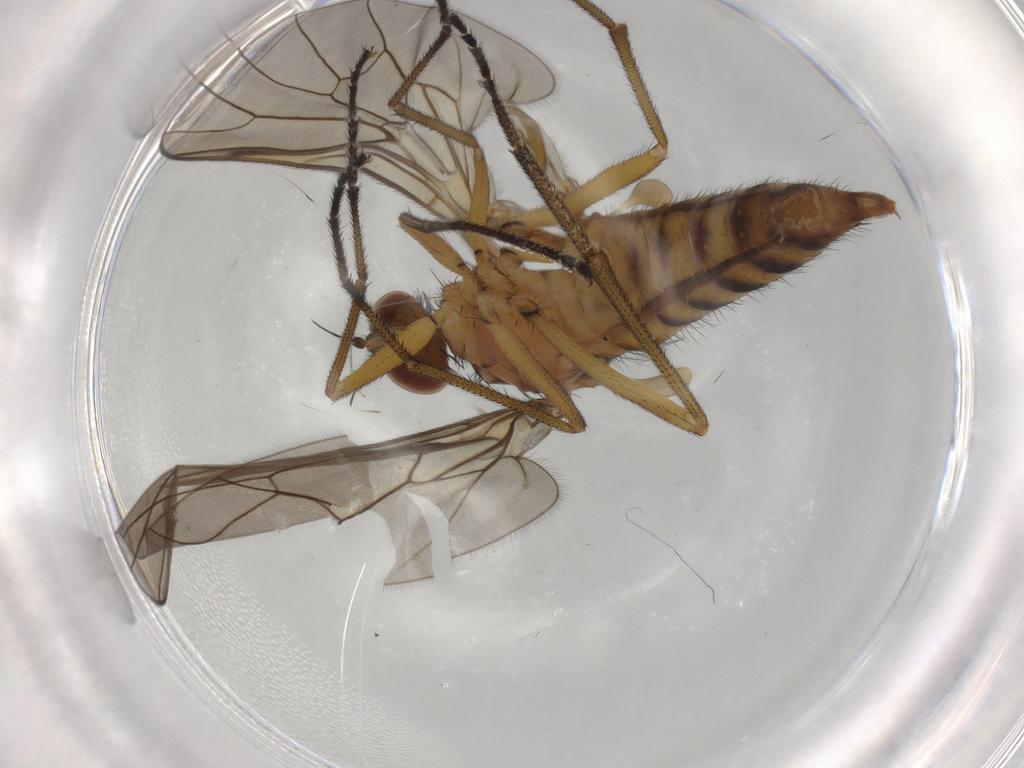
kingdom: Animalia
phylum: Arthropoda
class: Insecta
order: Diptera
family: Brachystomatidae
